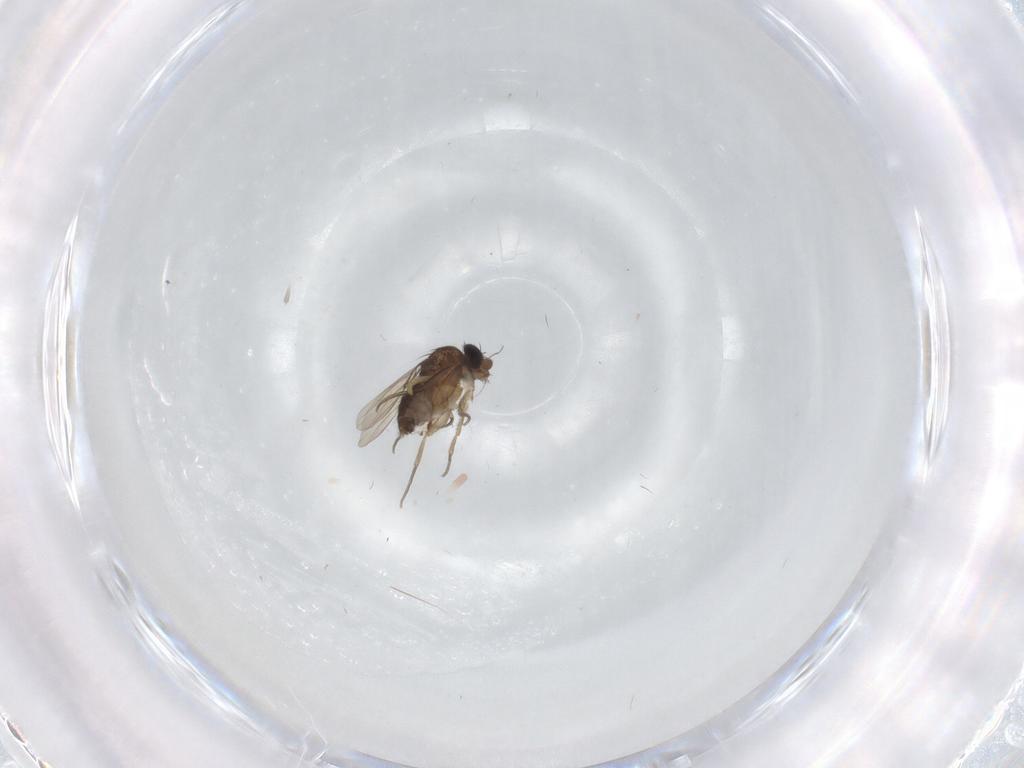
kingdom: Animalia
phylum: Arthropoda
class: Insecta
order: Diptera
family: Phoridae
